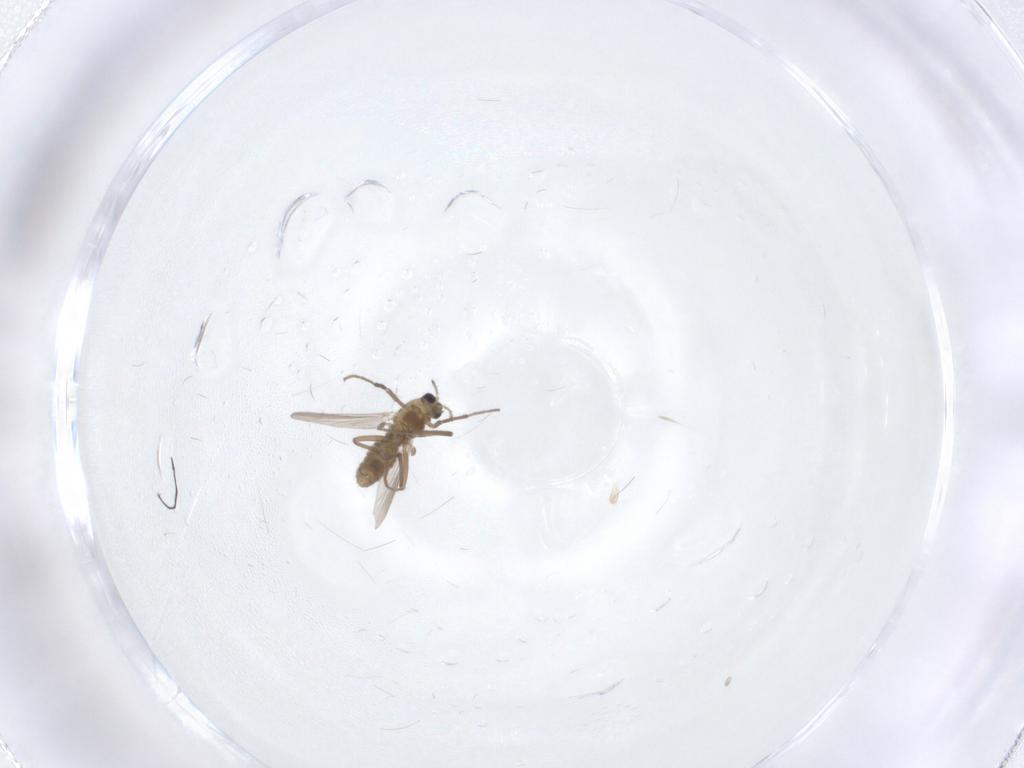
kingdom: Animalia
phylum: Arthropoda
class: Insecta
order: Diptera
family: Chironomidae
